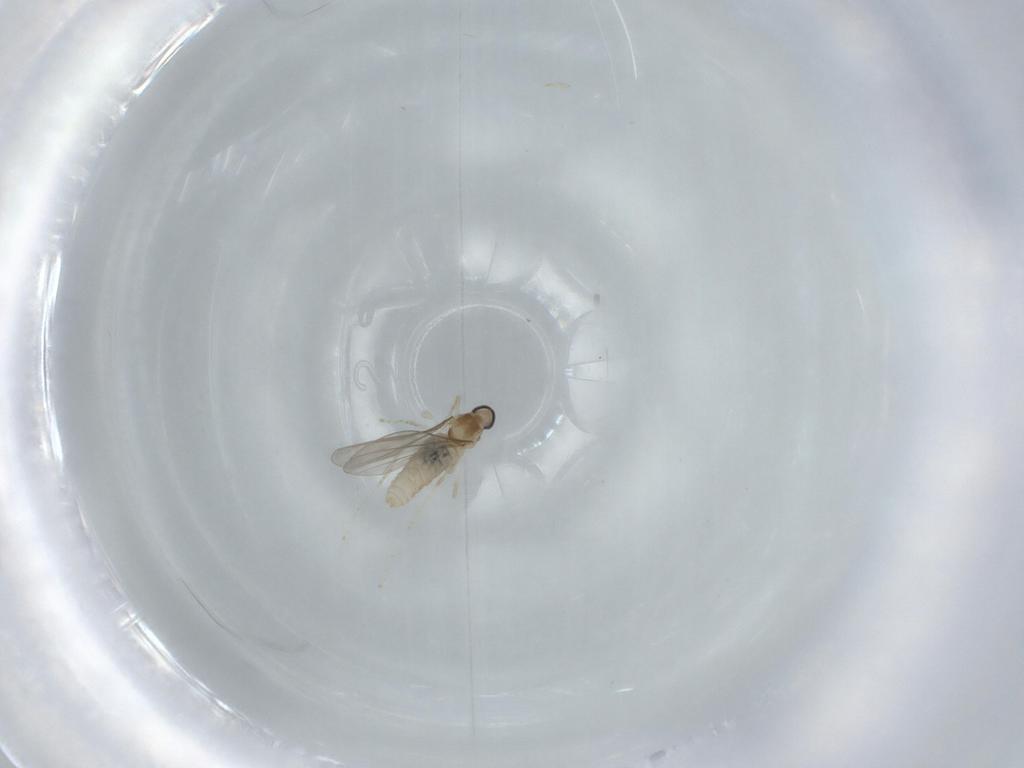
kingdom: Animalia
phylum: Arthropoda
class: Insecta
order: Diptera
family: Cecidomyiidae
